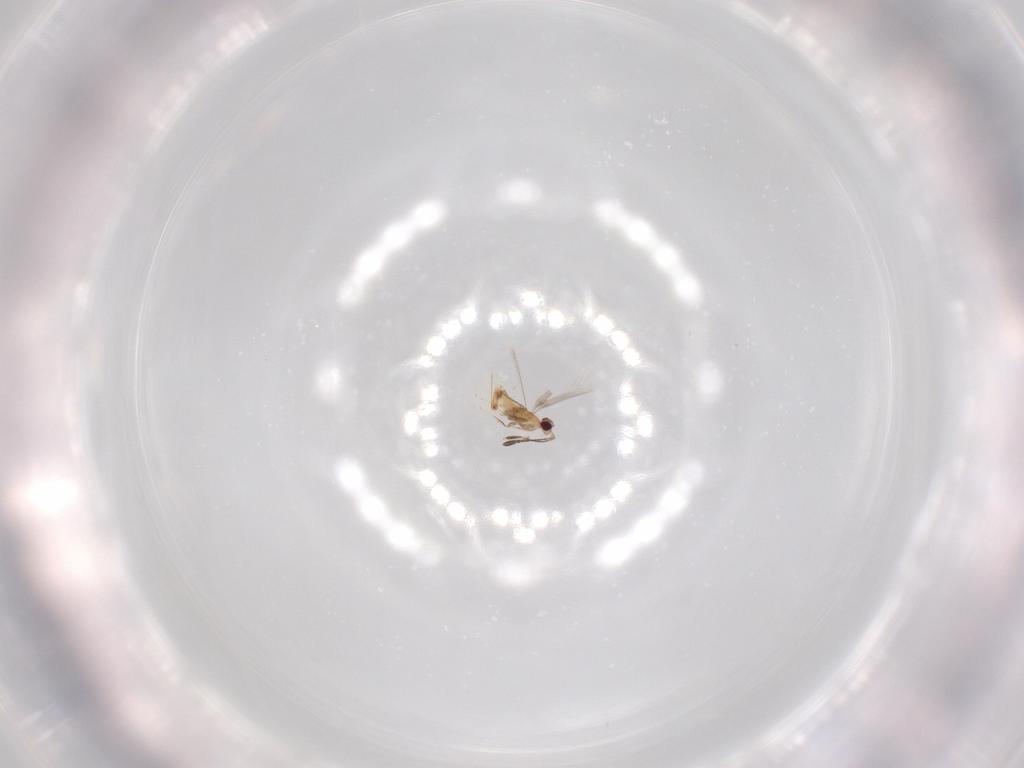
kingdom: Animalia
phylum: Arthropoda
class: Insecta
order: Hymenoptera
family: Mymaridae
